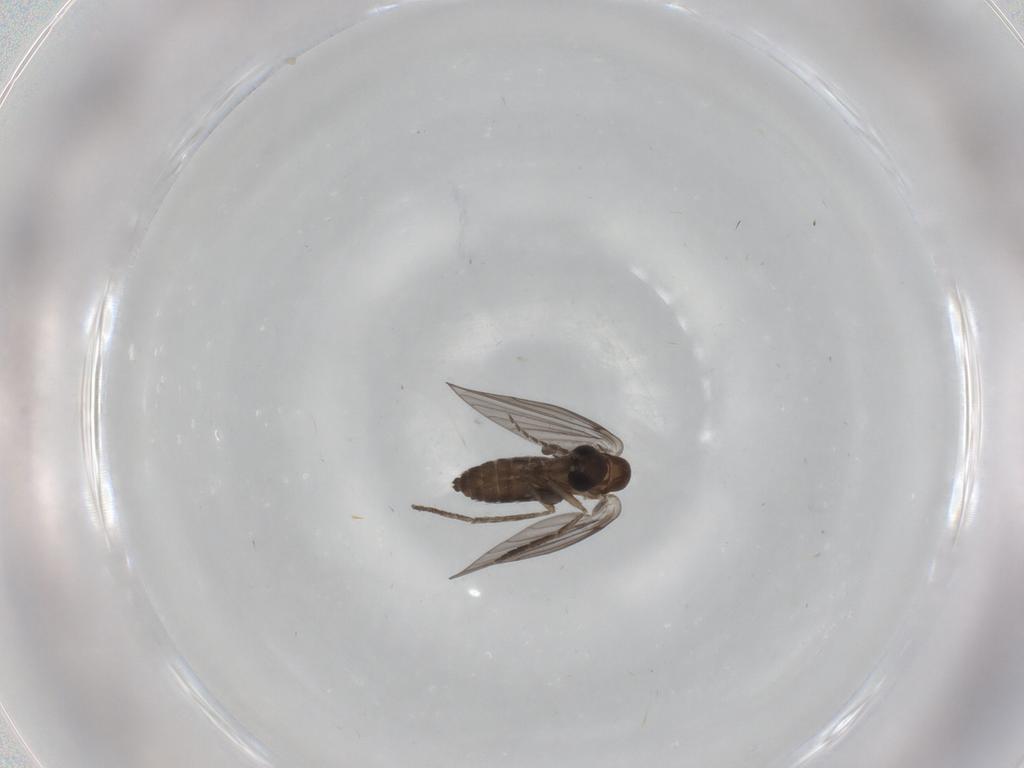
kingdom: Animalia
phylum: Arthropoda
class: Insecta
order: Diptera
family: Psychodidae
